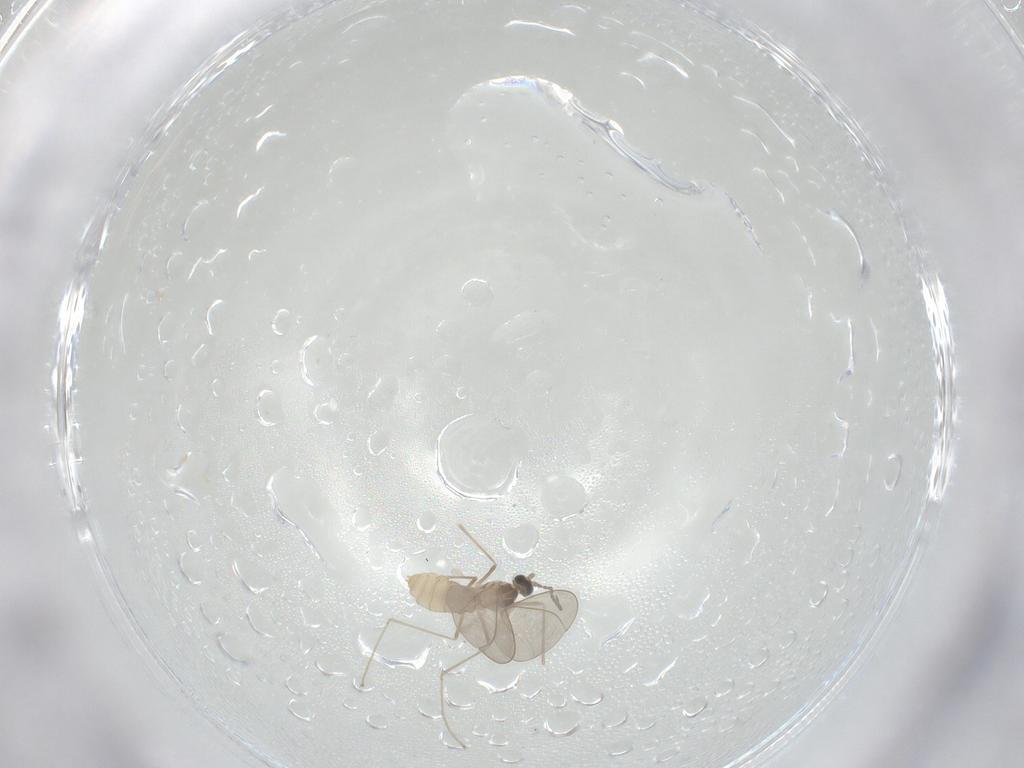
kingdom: Animalia
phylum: Arthropoda
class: Insecta
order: Diptera
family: Cecidomyiidae
